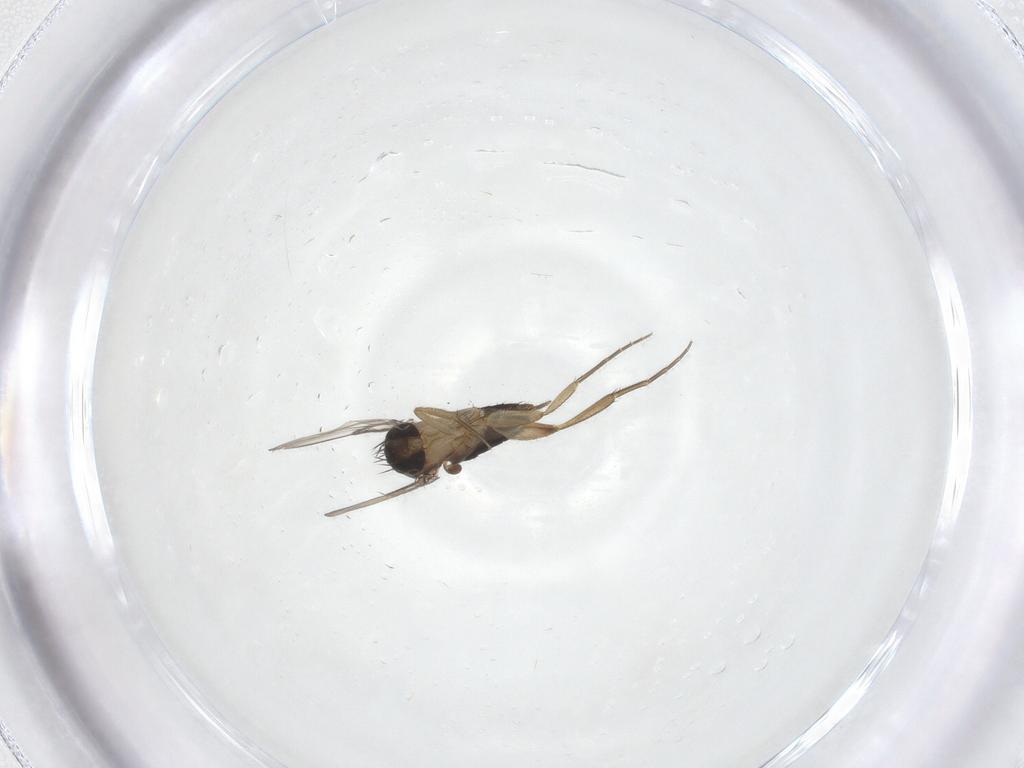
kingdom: Animalia
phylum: Arthropoda
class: Insecta
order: Diptera
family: Phoridae
